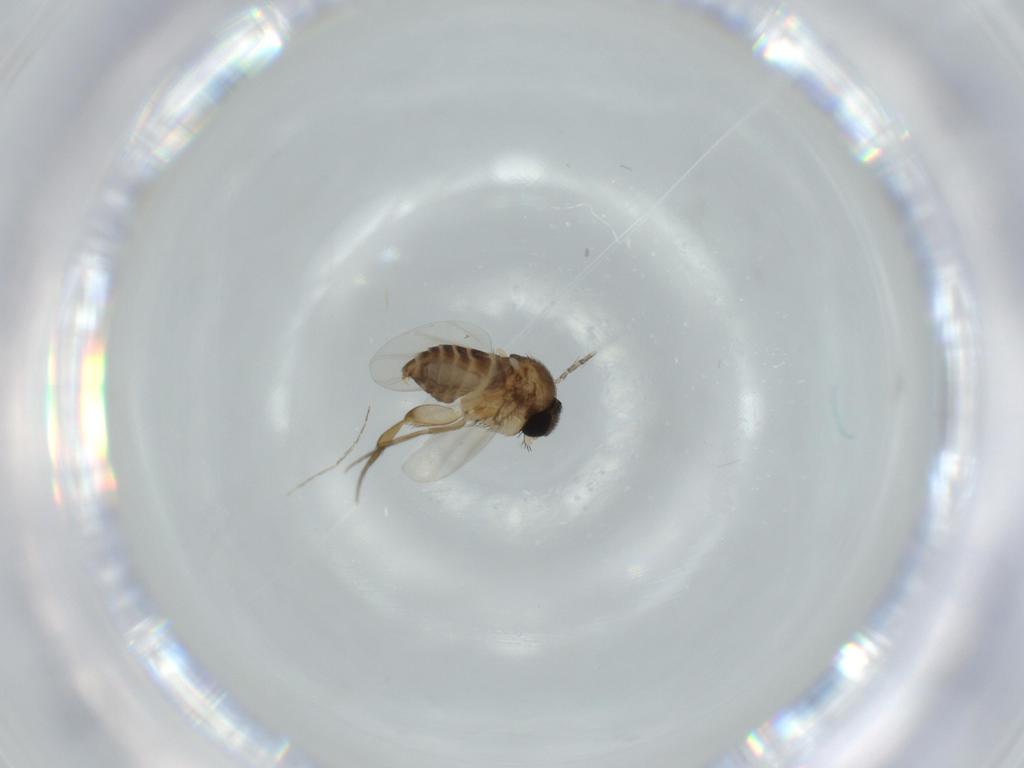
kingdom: Animalia
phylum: Arthropoda
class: Insecta
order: Diptera
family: Phoridae
